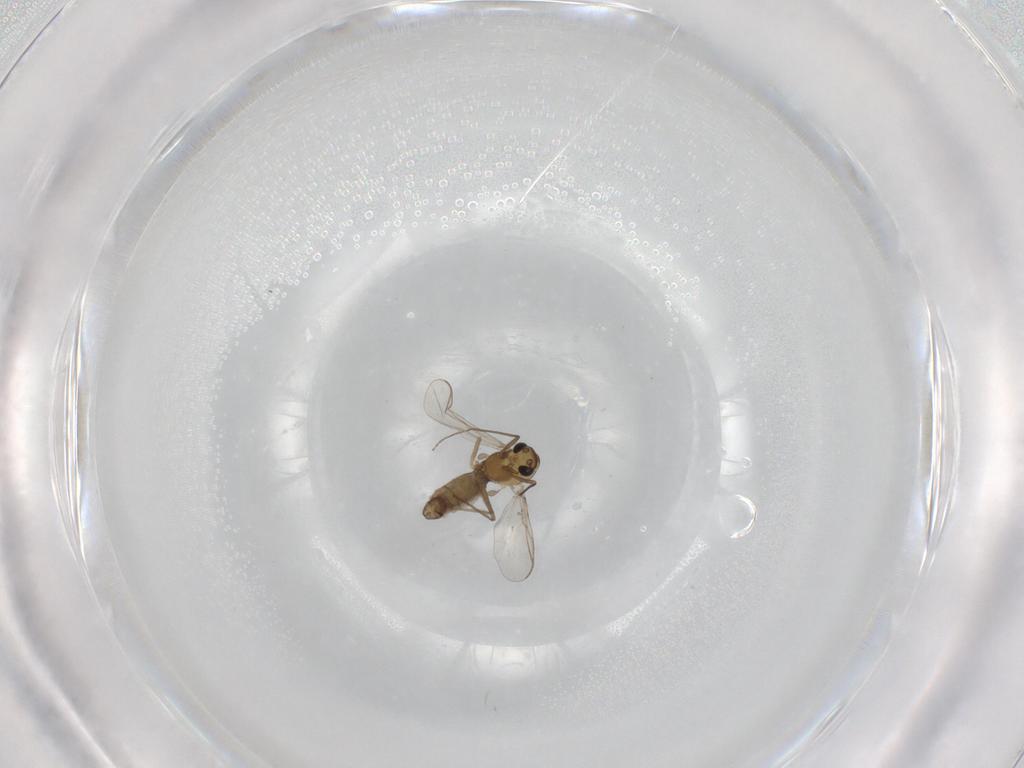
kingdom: Animalia
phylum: Arthropoda
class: Insecta
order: Diptera
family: Chironomidae
